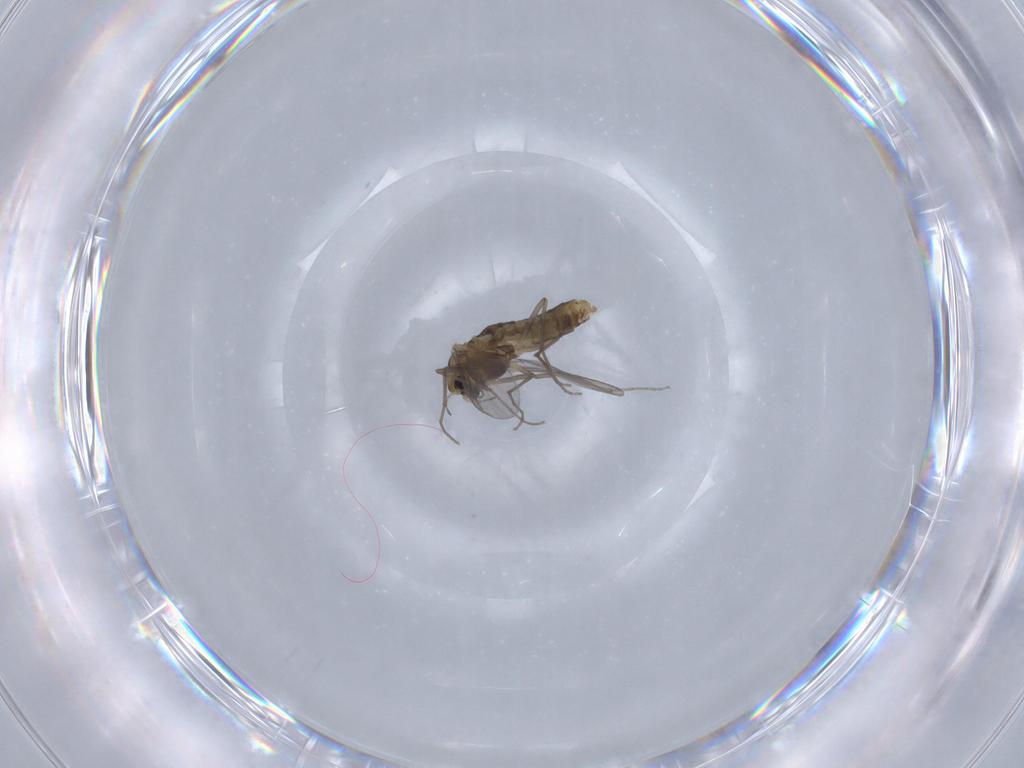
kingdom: Animalia
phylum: Arthropoda
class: Insecta
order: Diptera
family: Chironomidae
